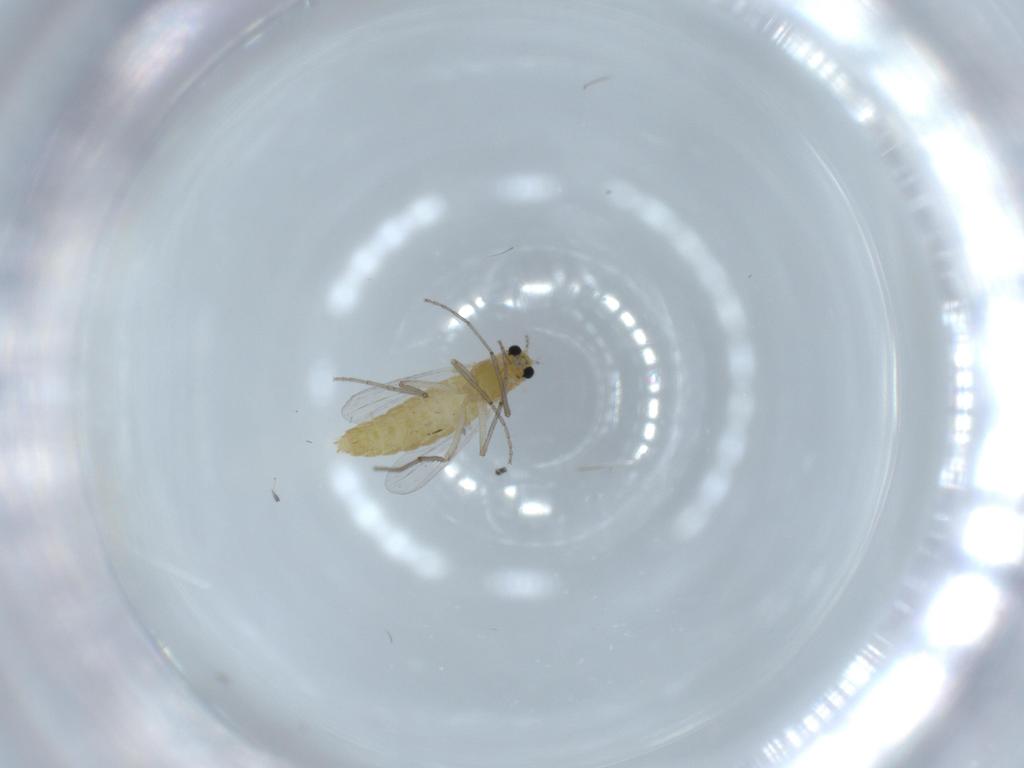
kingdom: Animalia
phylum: Arthropoda
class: Insecta
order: Diptera
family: Chironomidae
